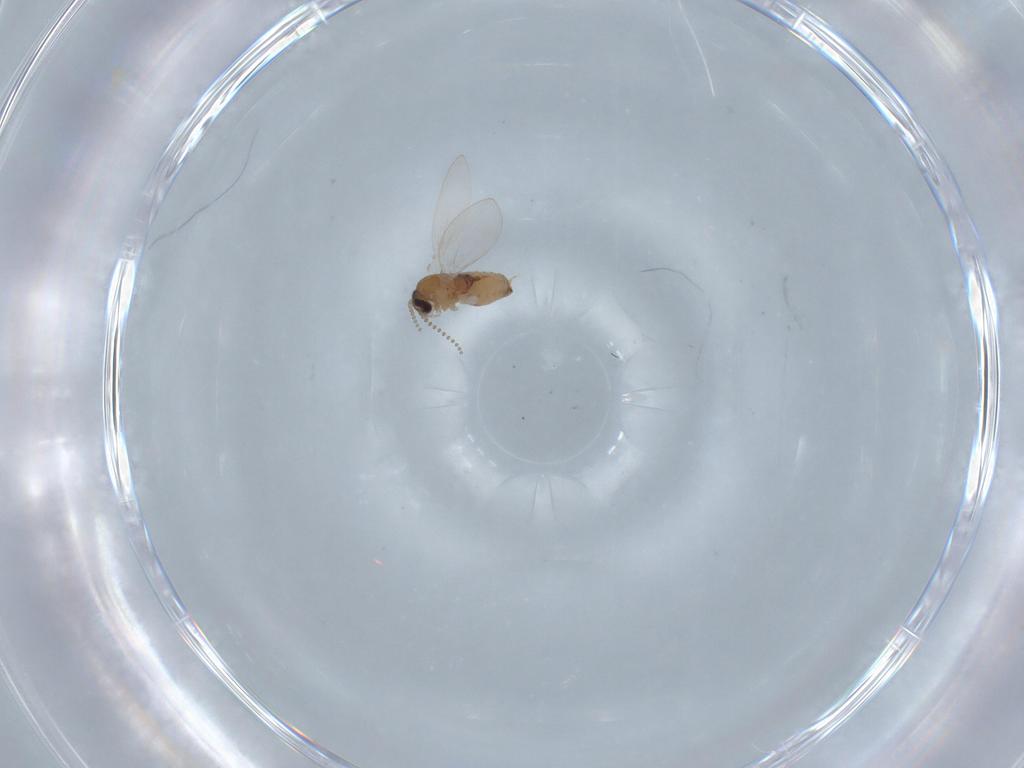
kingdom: Animalia
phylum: Arthropoda
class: Insecta
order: Diptera
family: Psychodidae
